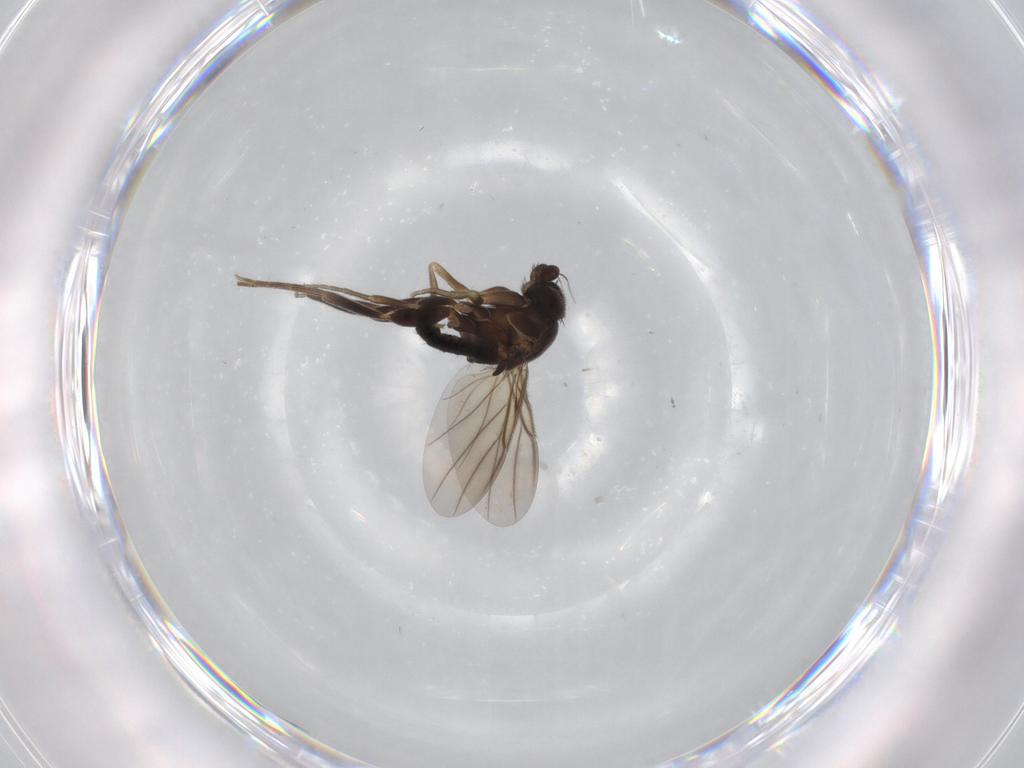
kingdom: Animalia
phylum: Arthropoda
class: Insecta
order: Diptera
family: Phoridae
